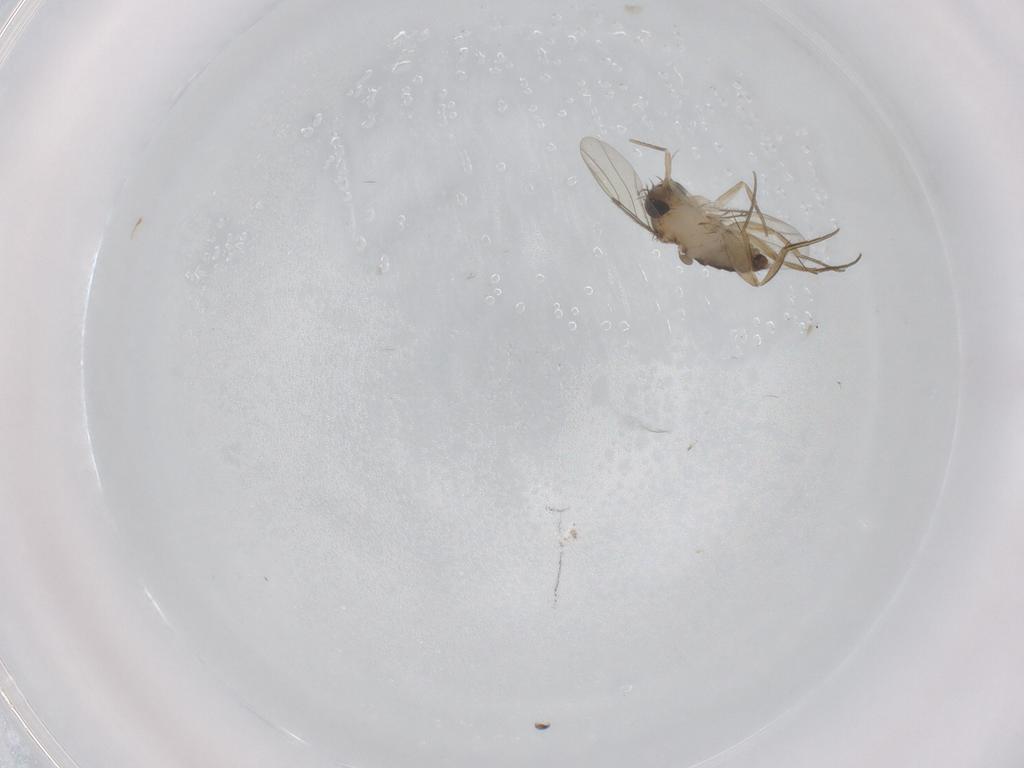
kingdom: Animalia
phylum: Arthropoda
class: Insecta
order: Diptera
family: Phoridae
